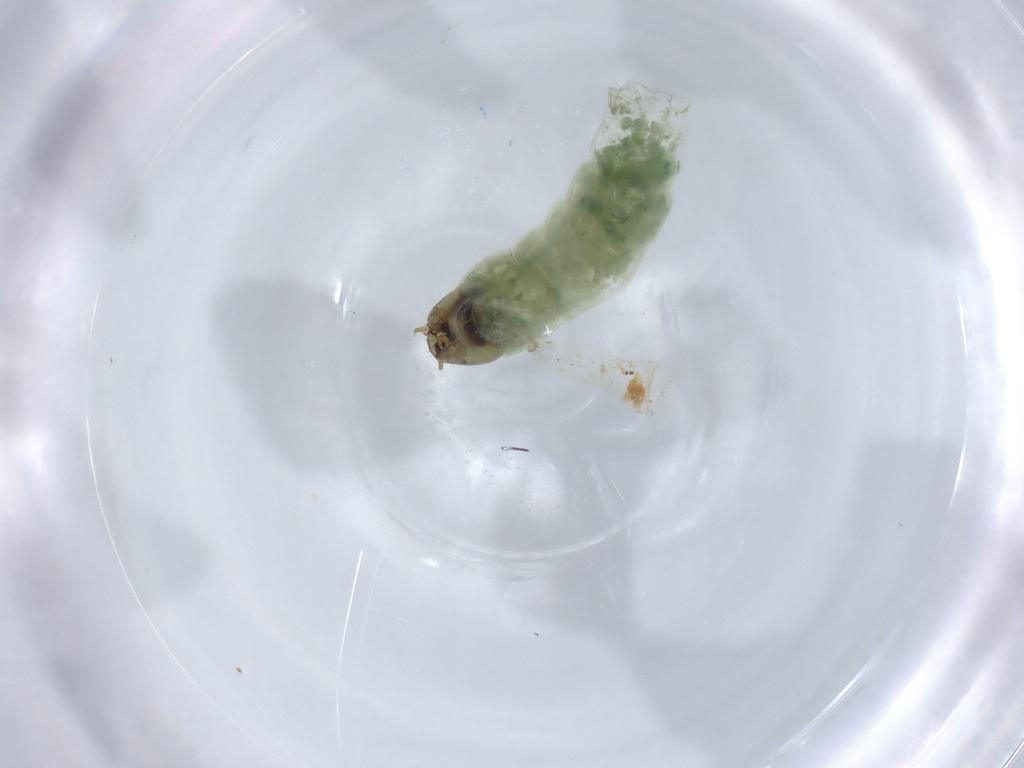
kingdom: Animalia
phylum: Arthropoda
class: Insecta
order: Diptera
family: Chironomidae
